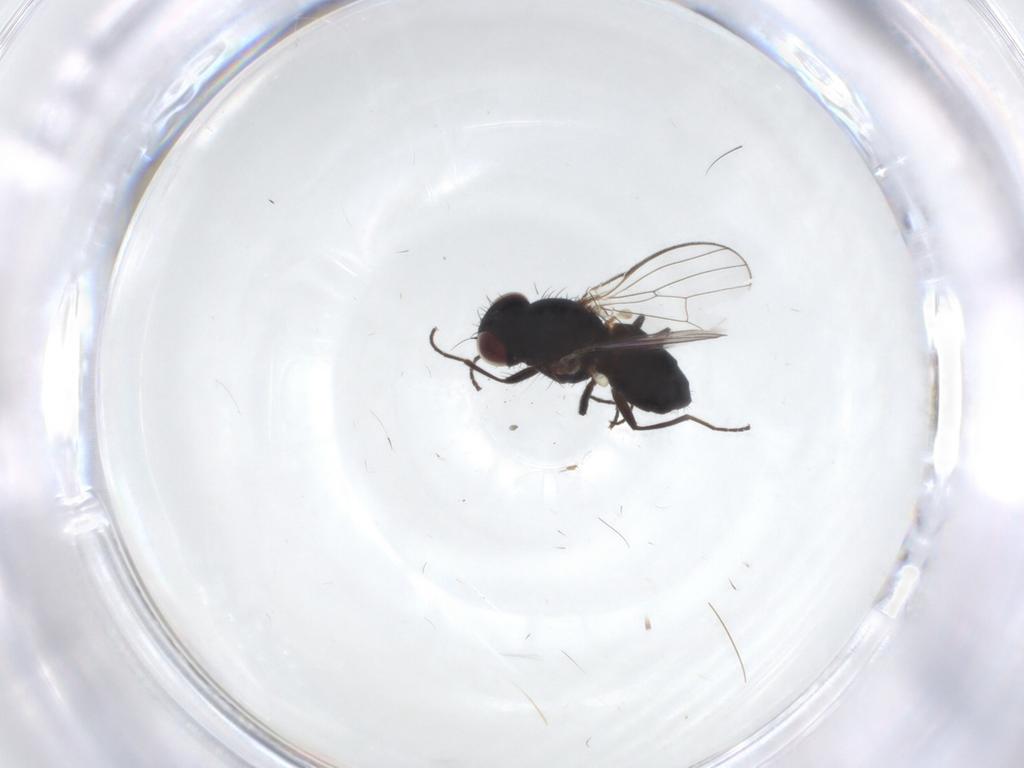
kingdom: Animalia
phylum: Arthropoda
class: Insecta
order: Diptera
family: Carnidae
